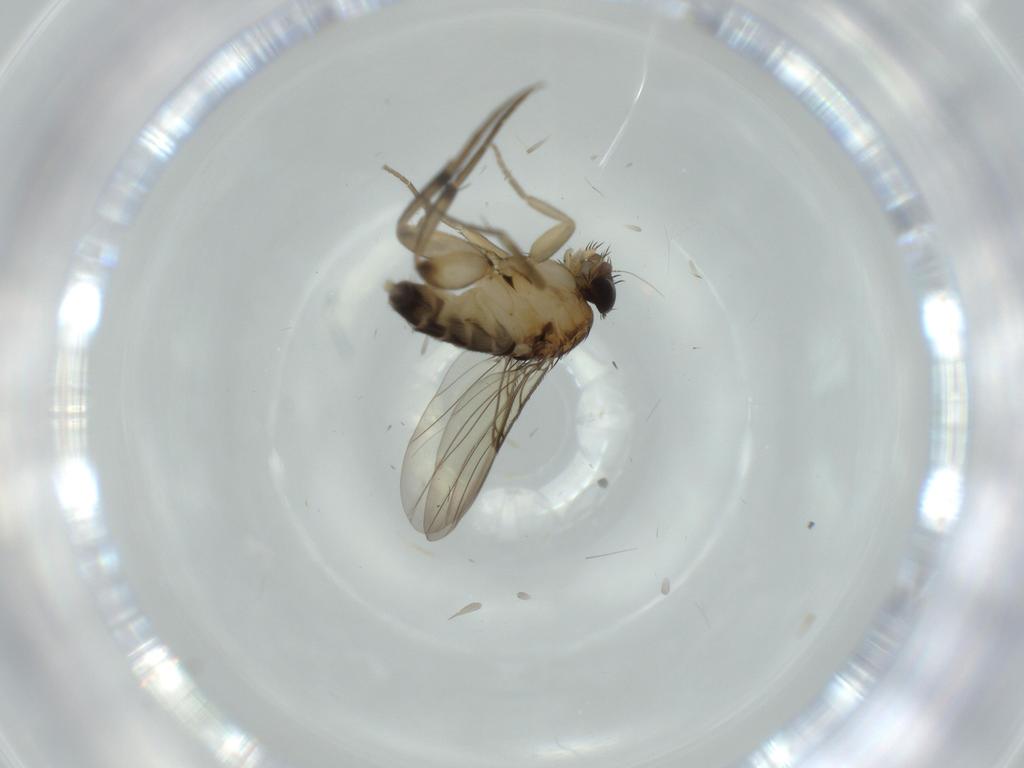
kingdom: Animalia
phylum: Arthropoda
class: Insecta
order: Diptera
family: Phoridae
